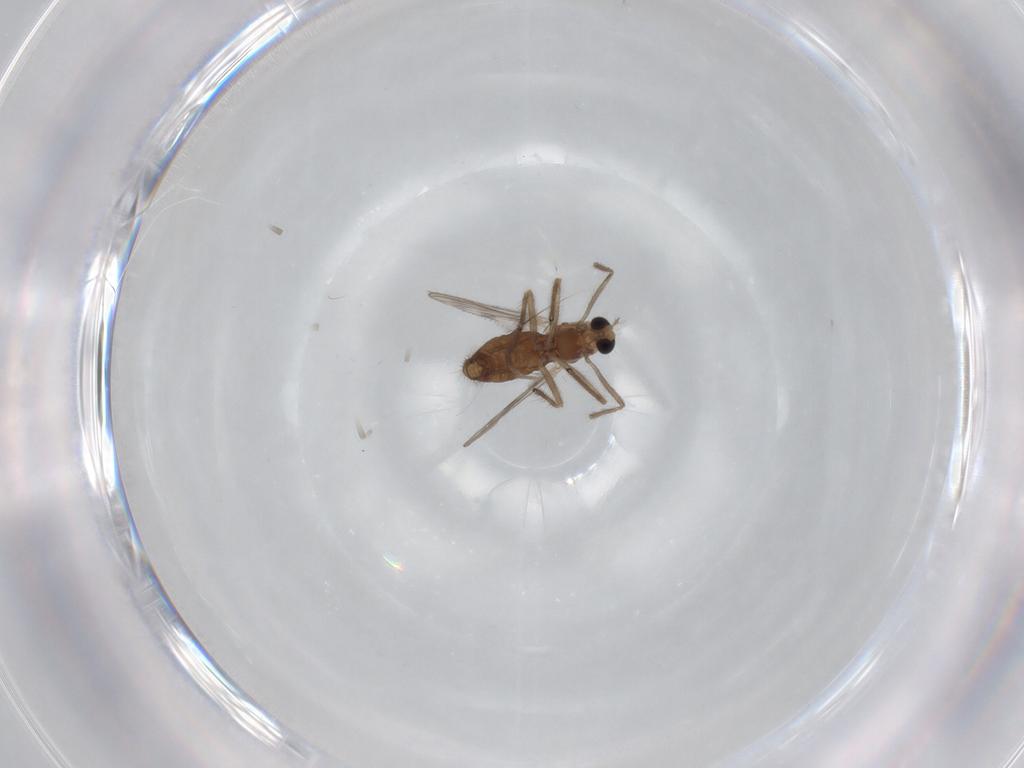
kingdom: Animalia
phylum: Arthropoda
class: Insecta
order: Diptera
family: Chironomidae
